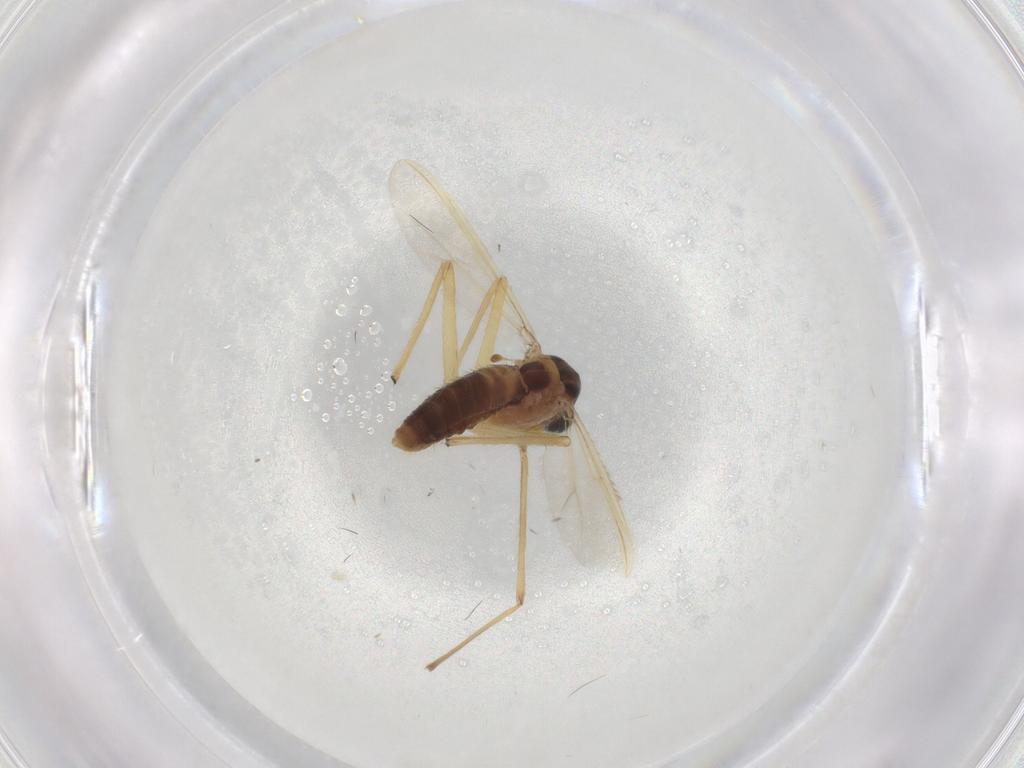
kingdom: Animalia
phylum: Arthropoda
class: Insecta
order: Diptera
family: Chironomidae
